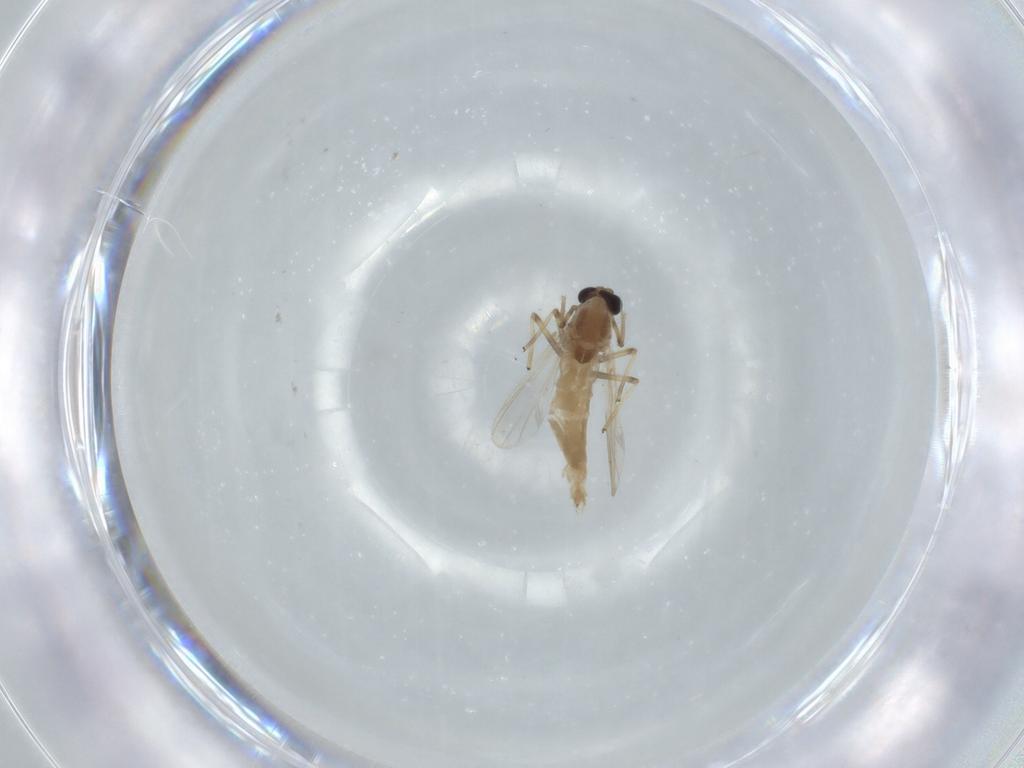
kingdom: Animalia
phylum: Arthropoda
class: Insecta
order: Diptera
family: Chironomidae
